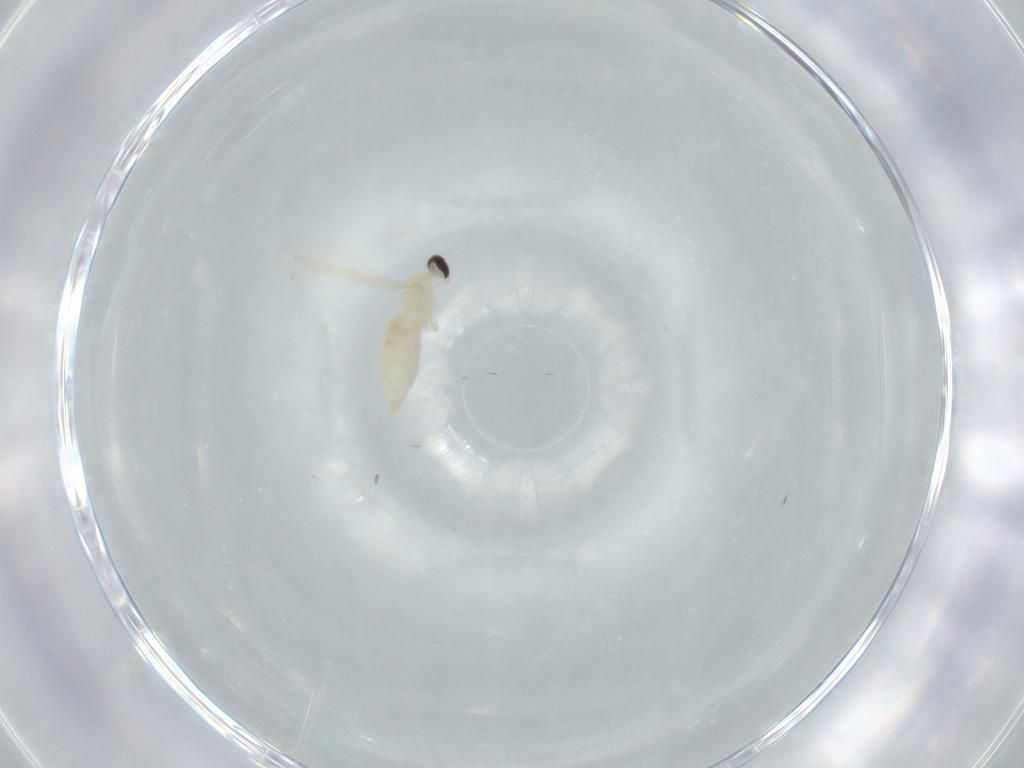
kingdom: Animalia
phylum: Arthropoda
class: Insecta
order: Diptera
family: Cecidomyiidae
